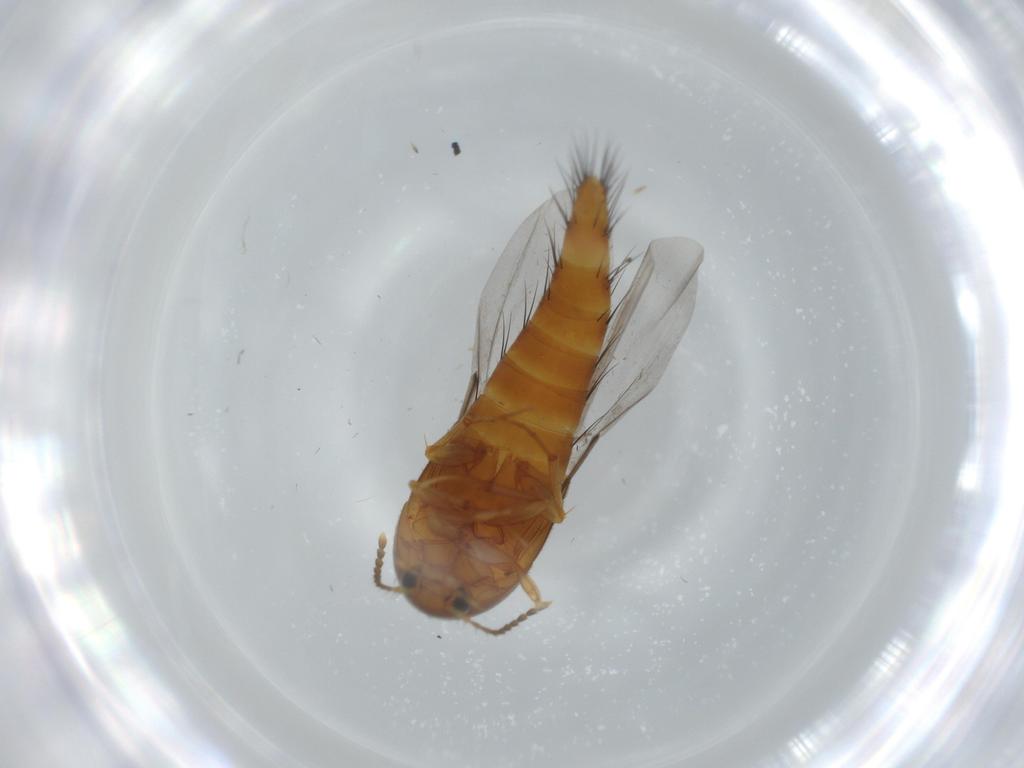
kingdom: Animalia
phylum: Arthropoda
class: Insecta
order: Coleoptera
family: Staphylinidae
